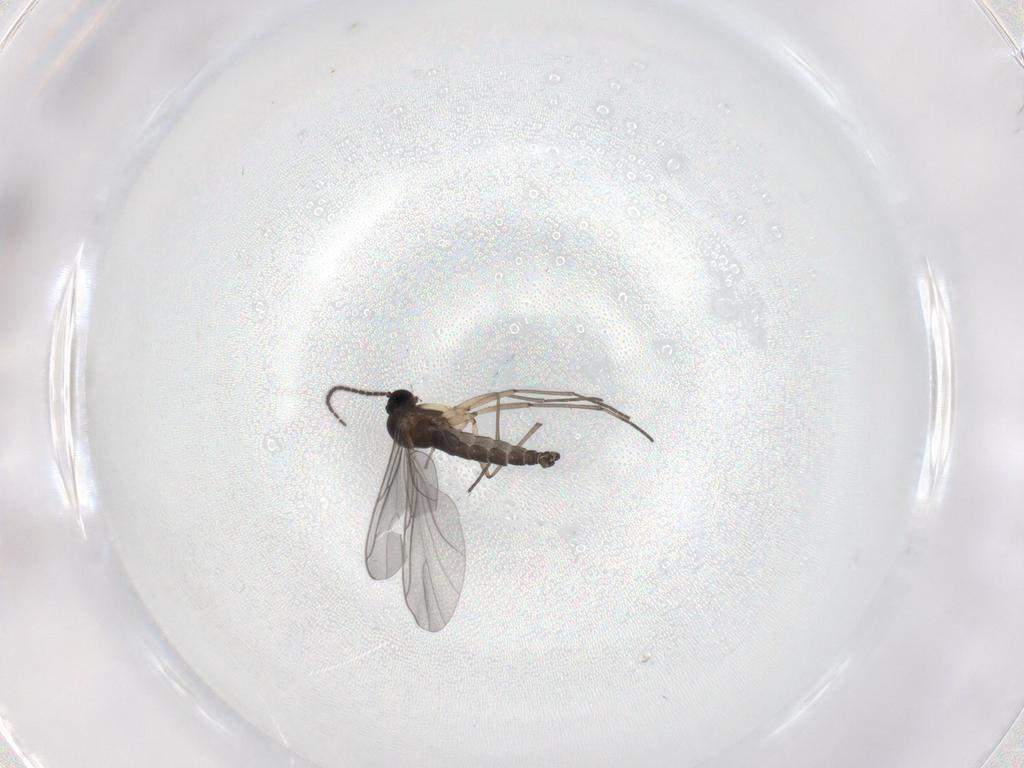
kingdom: Animalia
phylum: Arthropoda
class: Insecta
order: Diptera
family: Sciaridae
